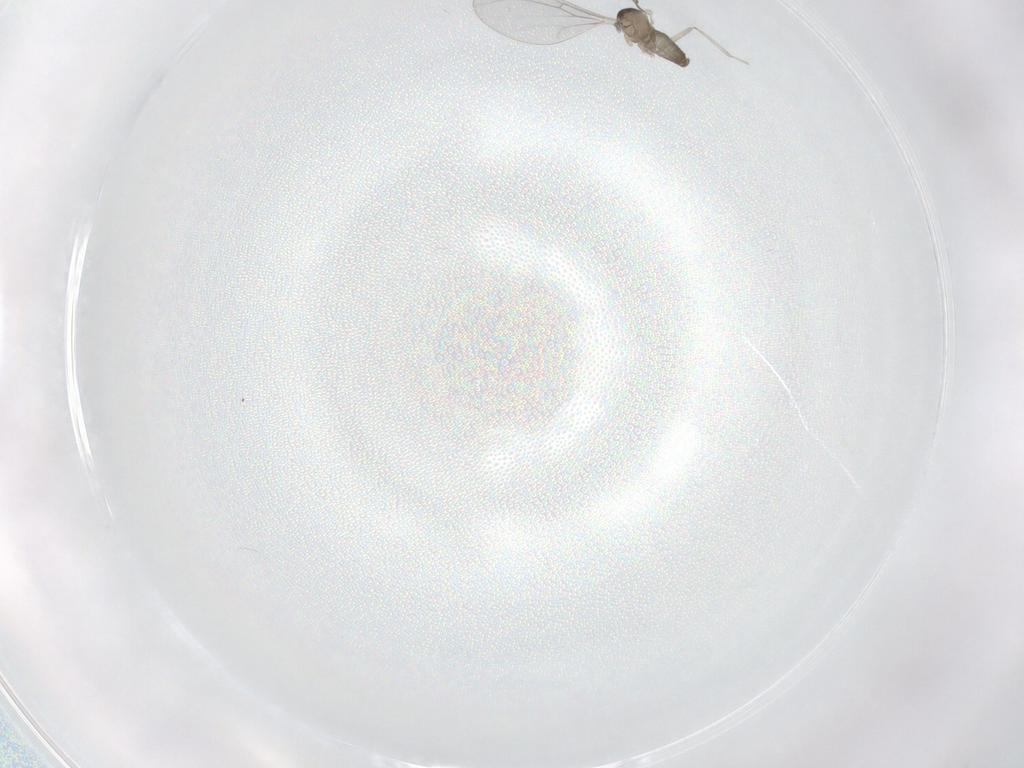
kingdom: Animalia
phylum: Arthropoda
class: Insecta
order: Diptera
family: Cecidomyiidae
